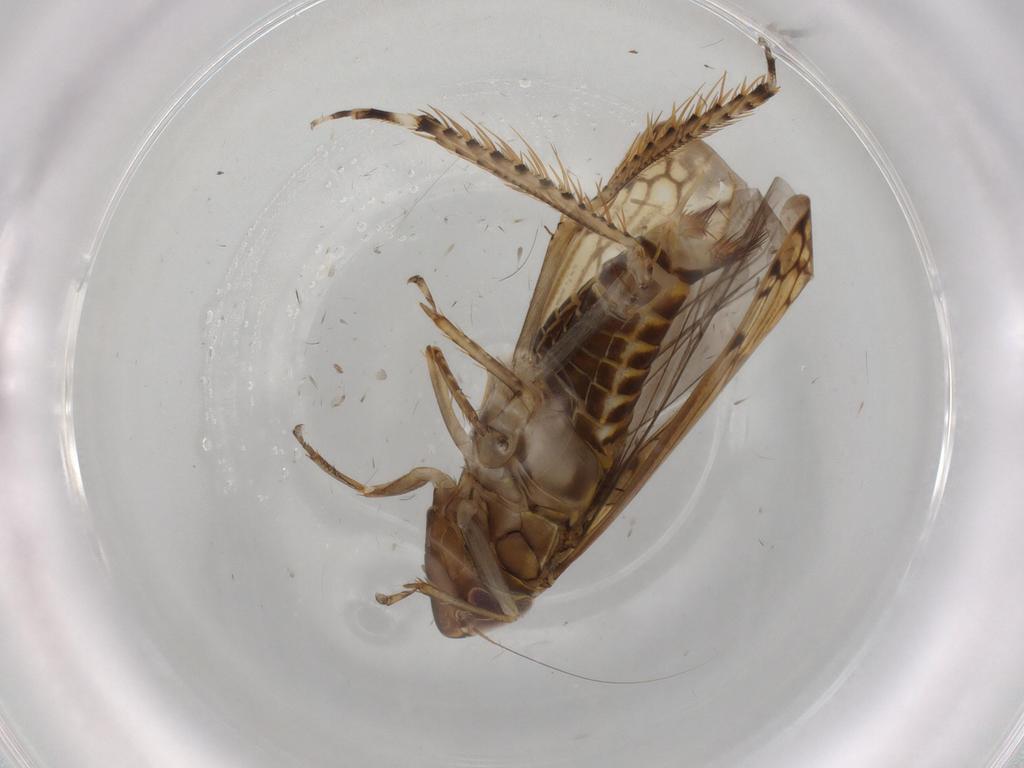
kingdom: Animalia
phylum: Arthropoda
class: Insecta
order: Hemiptera
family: Cicadellidae
